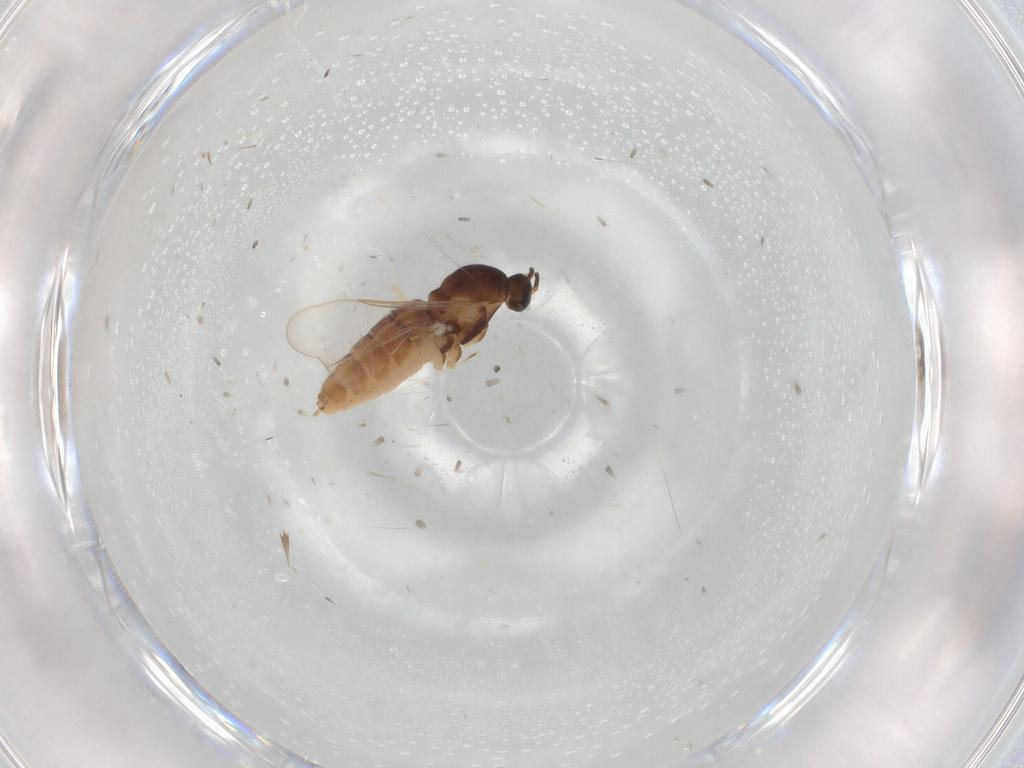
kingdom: Animalia
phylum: Arthropoda
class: Insecta
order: Diptera
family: Cecidomyiidae
